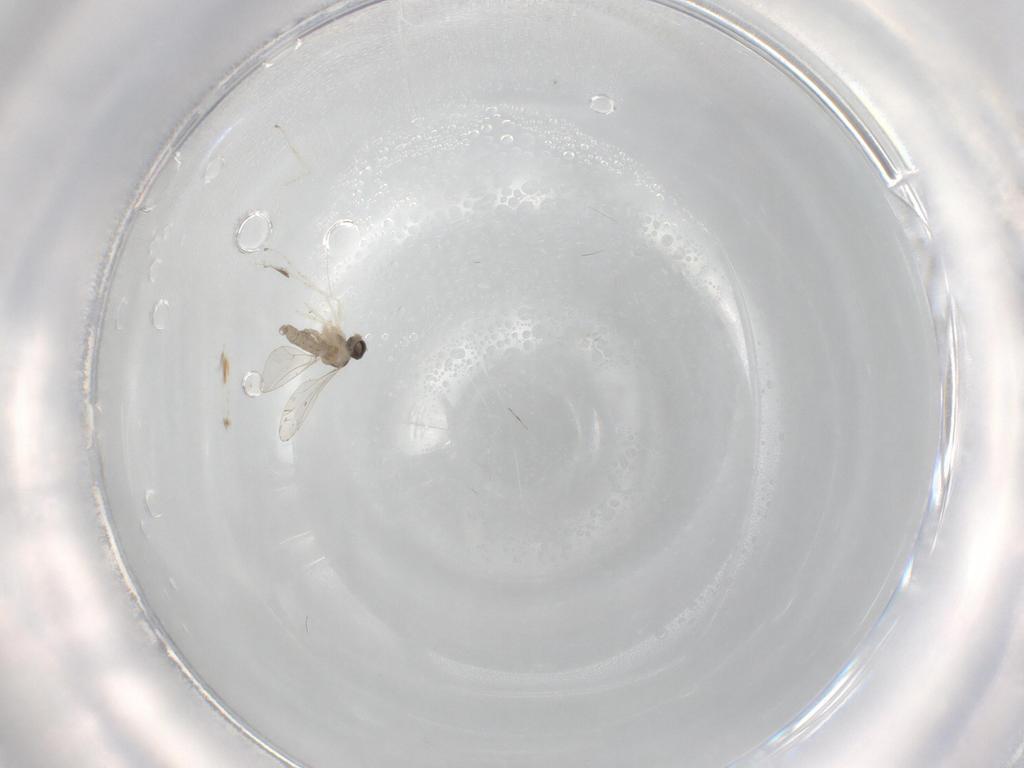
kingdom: Animalia
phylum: Arthropoda
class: Insecta
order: Diptera
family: Cecidomyiidae
